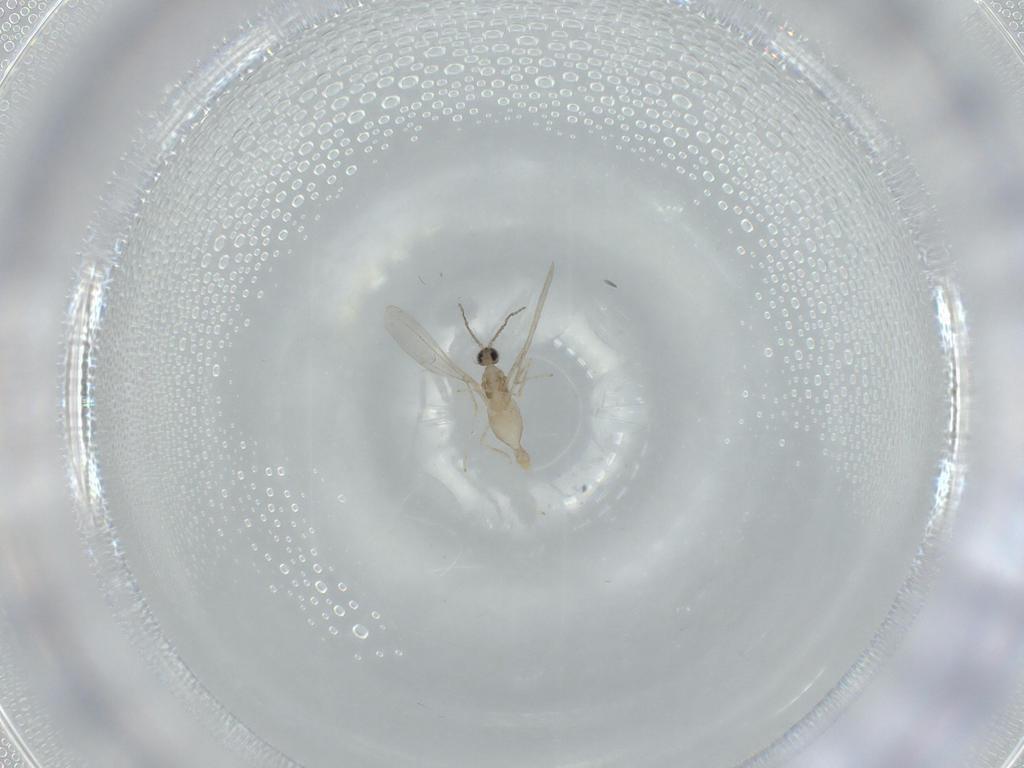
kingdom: Animalia
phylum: Arthropoda
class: Insecta
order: Diptera
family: Cecidomyiidae
